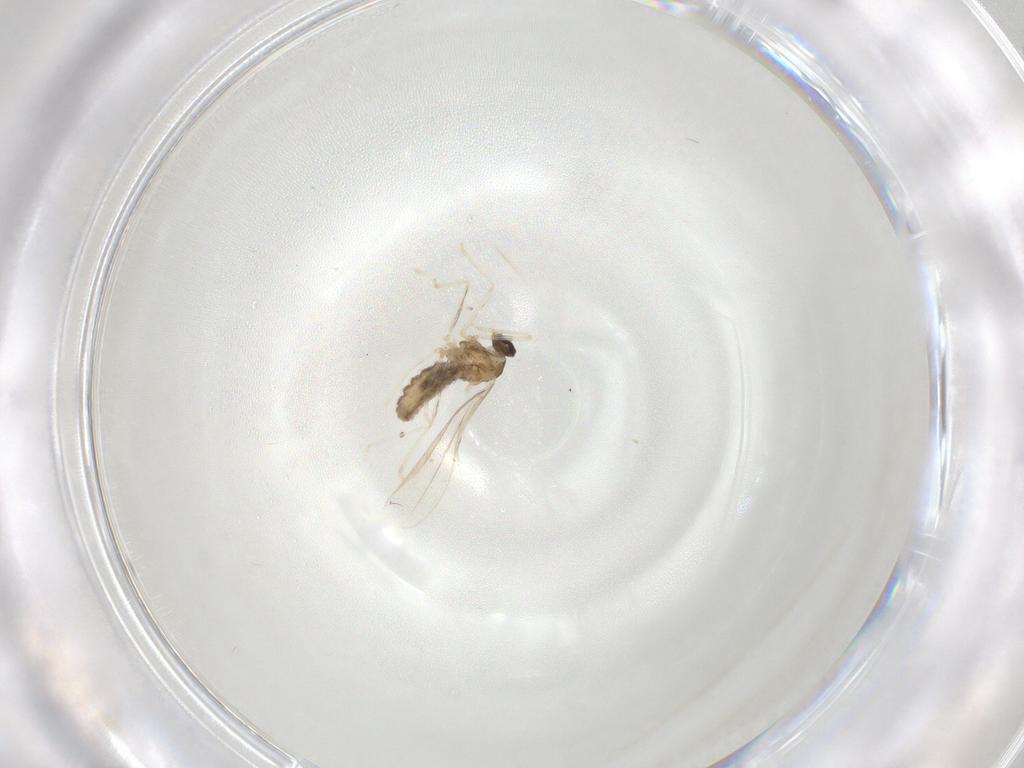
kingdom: Animalia
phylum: Arthropoda
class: Insecta
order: Diptera
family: Cecidomyiidae
